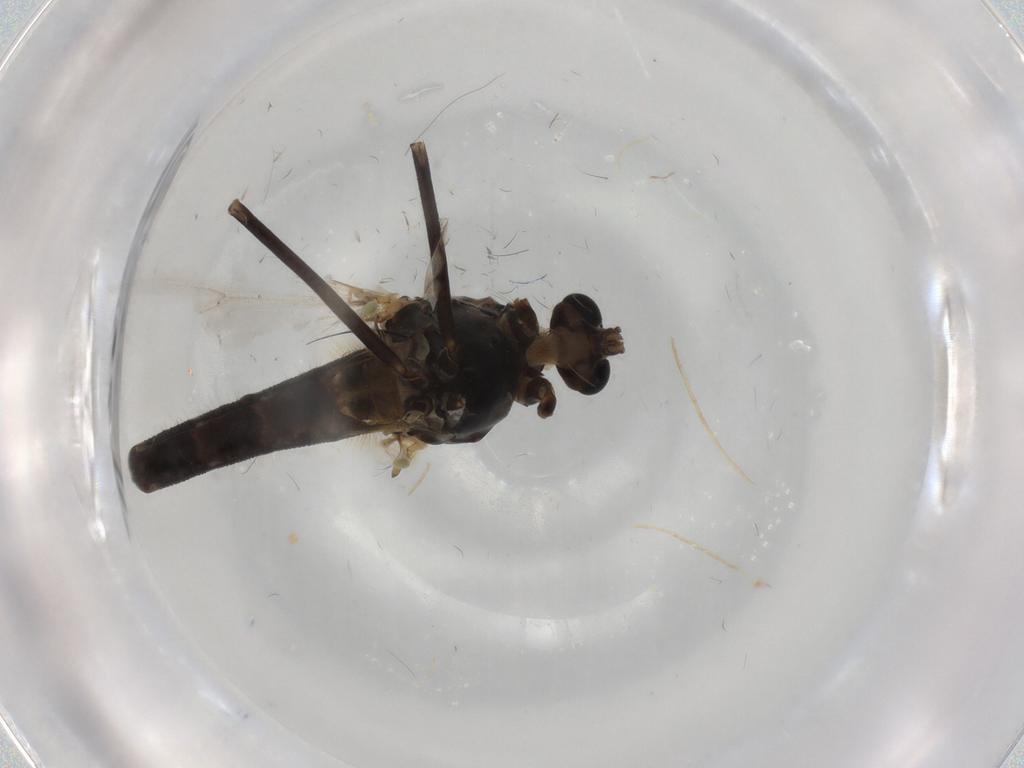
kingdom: Animalia
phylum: Arthropoda
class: Insecta
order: Diptera
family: Chironomidae
